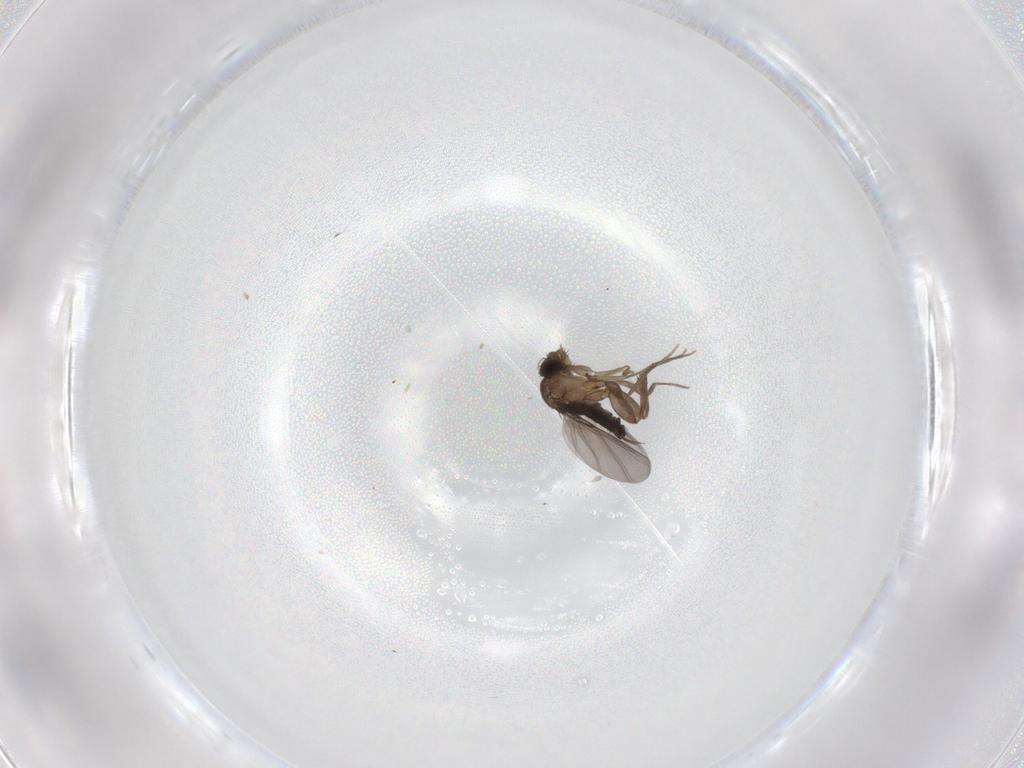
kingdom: Animalia
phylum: Arthropoda
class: Insecta
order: Diptera
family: Phoridae
